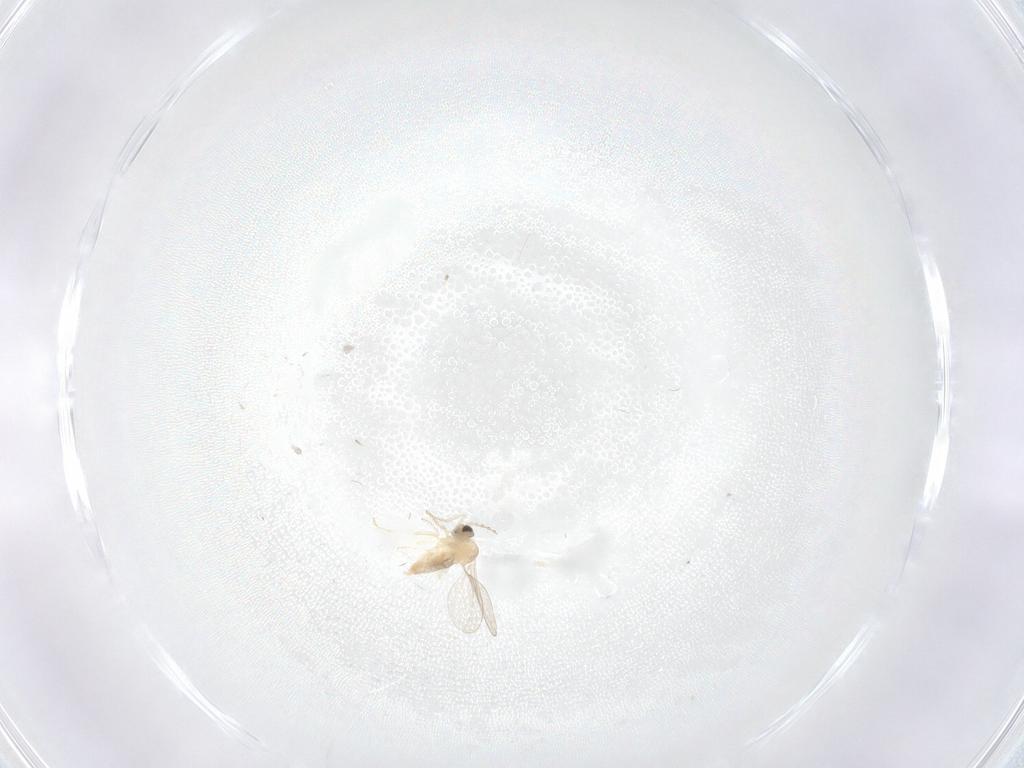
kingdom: Animalia
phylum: Arthropoda
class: Insecta
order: Diptera
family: Cecidomyiidae
